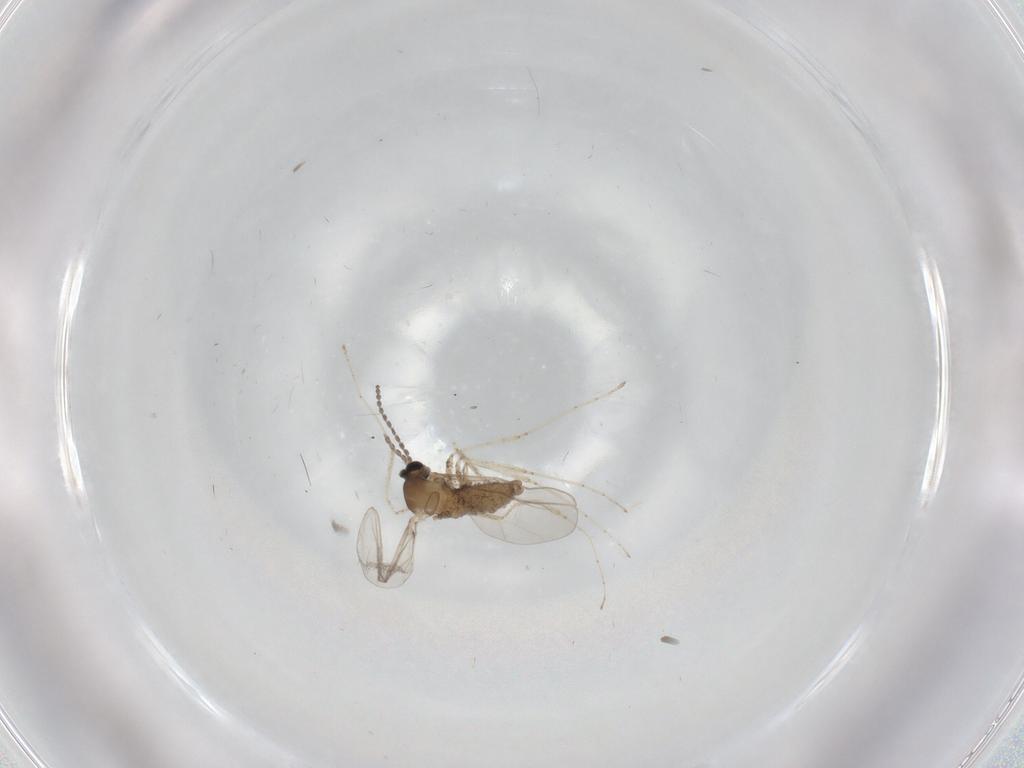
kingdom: Animalia
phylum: Arthropoda
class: Insecta
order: Diptera
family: Cecidomyiidae
